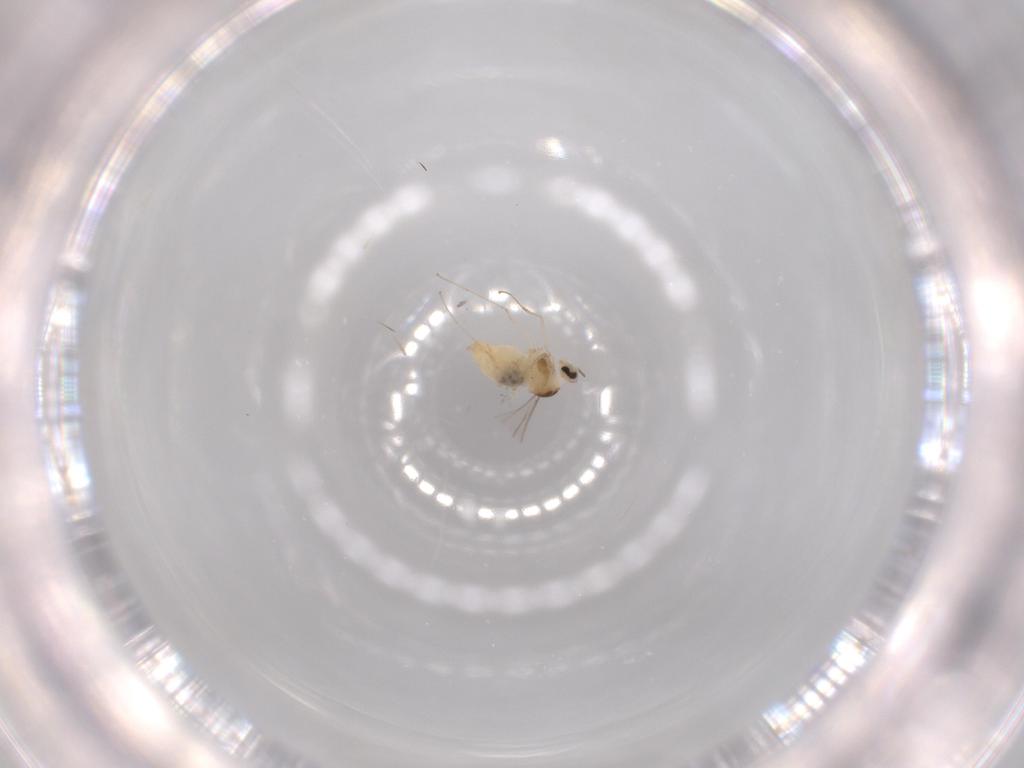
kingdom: Animalia
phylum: Arthropoda
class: Insecta
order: Diptera
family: Cecidomyiidae
